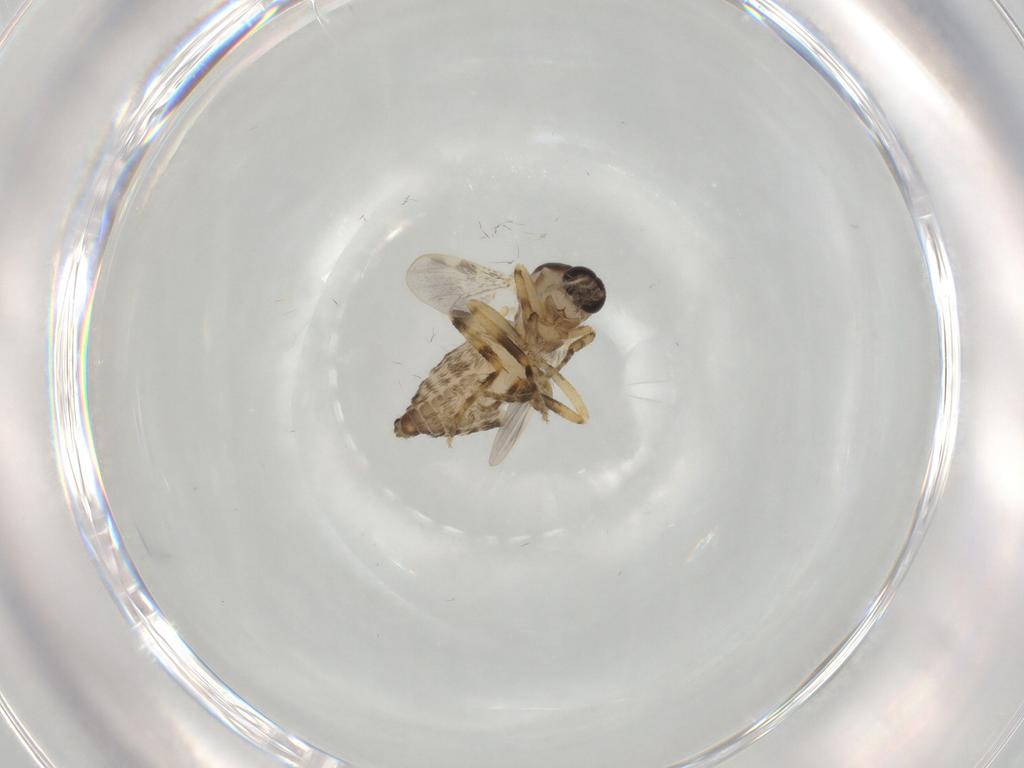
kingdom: Animalia
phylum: Arthropoda
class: Insecta
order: Diptera
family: Ceratopogonidae
